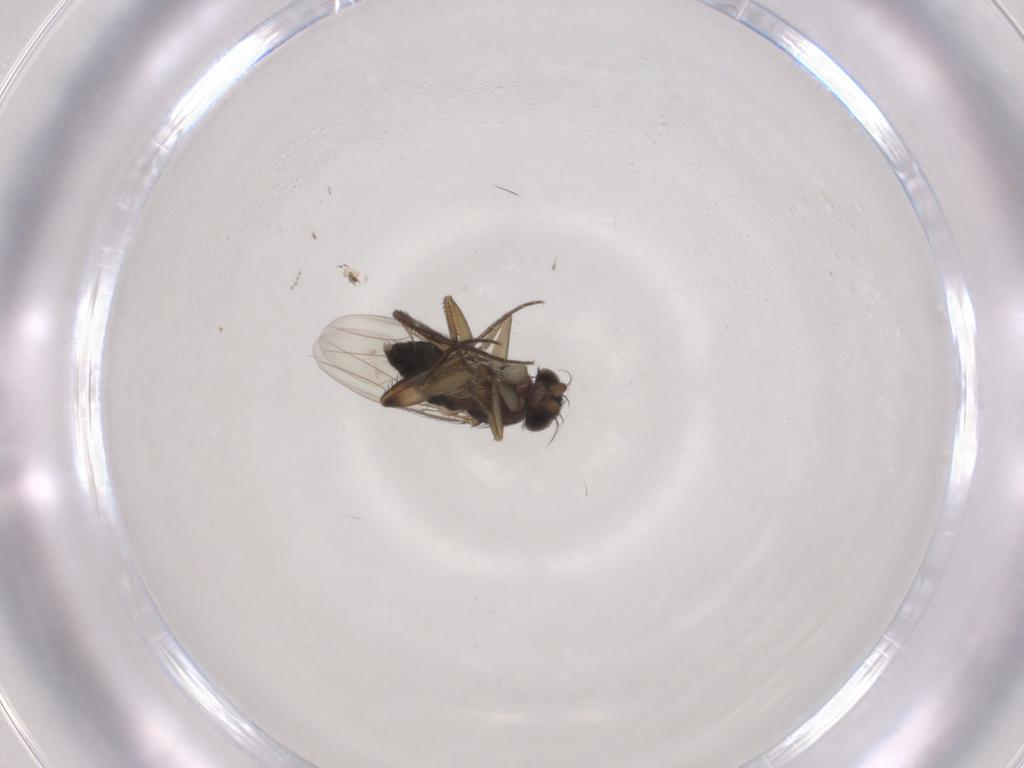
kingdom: Animalia
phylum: Arthropoda
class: Insecta
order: Diptera
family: Phoridae
